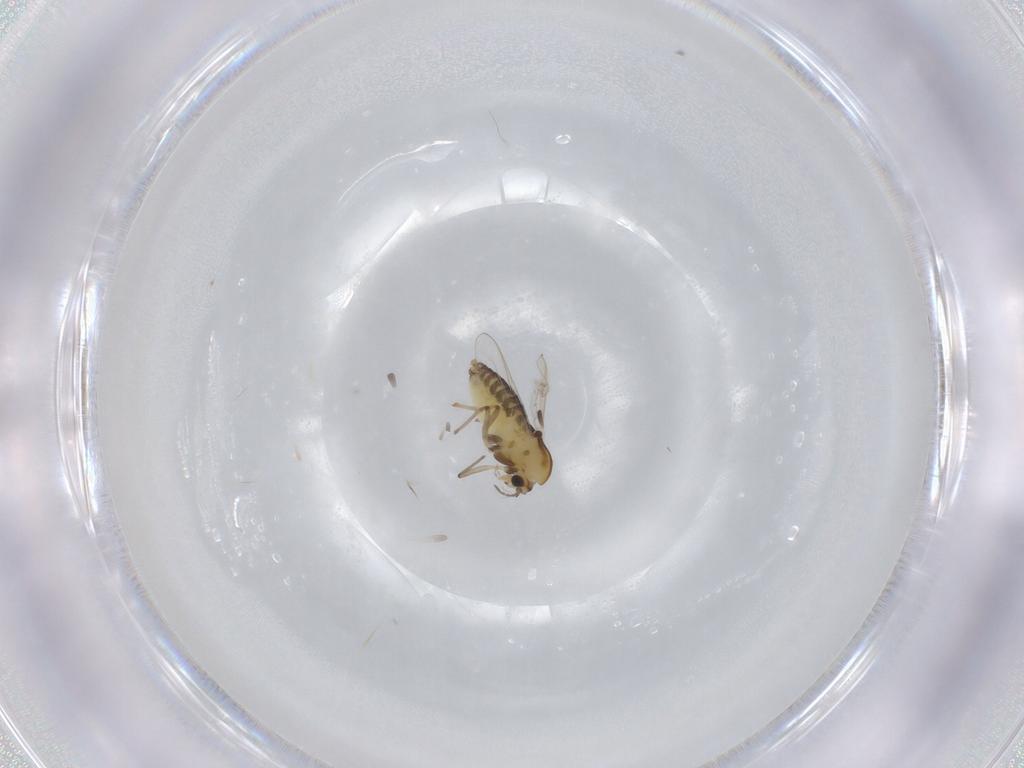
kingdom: Animalia
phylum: Arthropoda
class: Insecta
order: Diptera
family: Chironomidae
